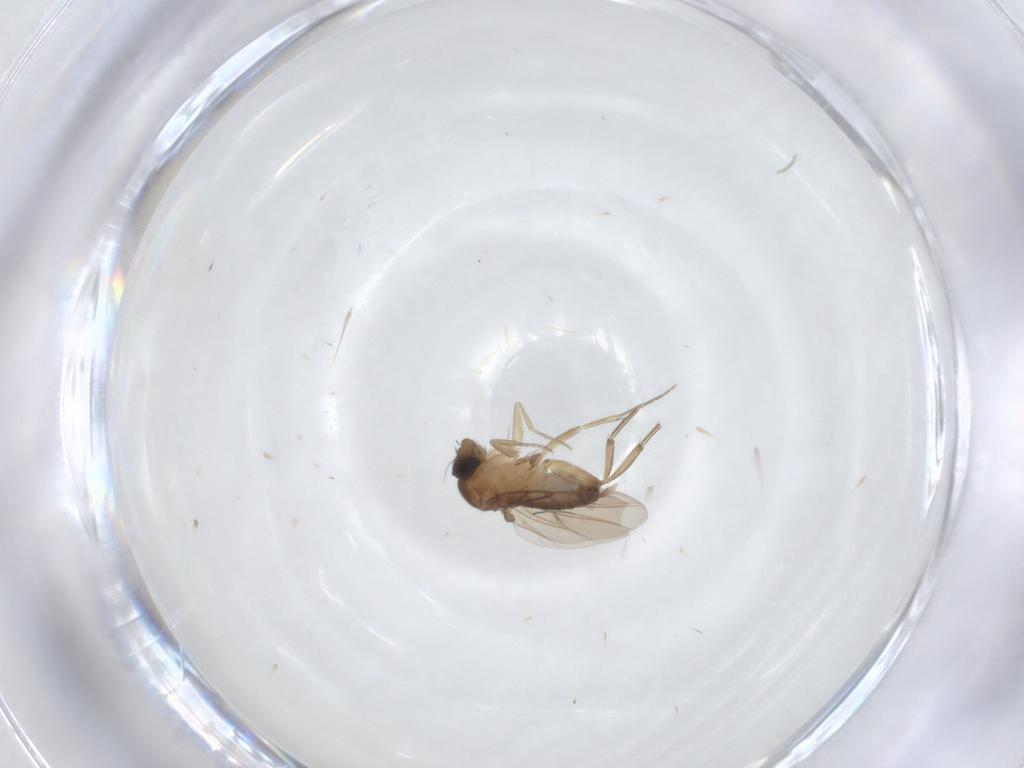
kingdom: Animalia
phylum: Arthropoda
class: Insecta
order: Diptera
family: Phoridae
